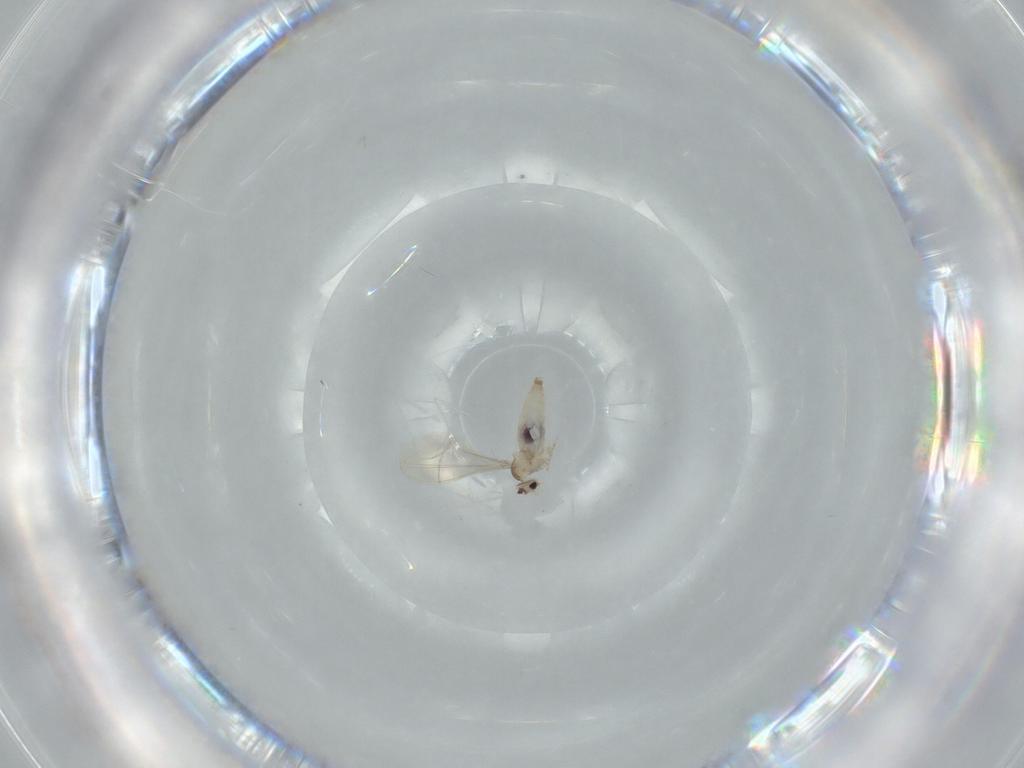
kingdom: Animalia
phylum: Arthropoda
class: Insecta
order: Diptera
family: Cecidomyiidae
